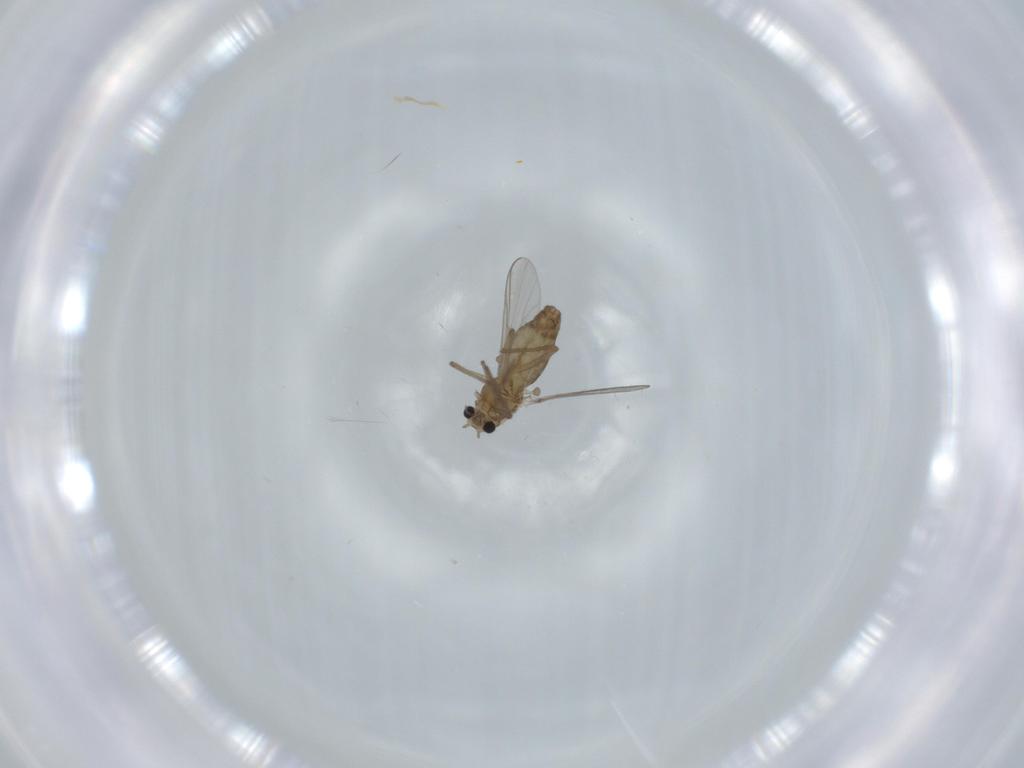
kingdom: Animalia
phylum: Arthropoda
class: Insecta
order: Diptera
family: Chironomidae
